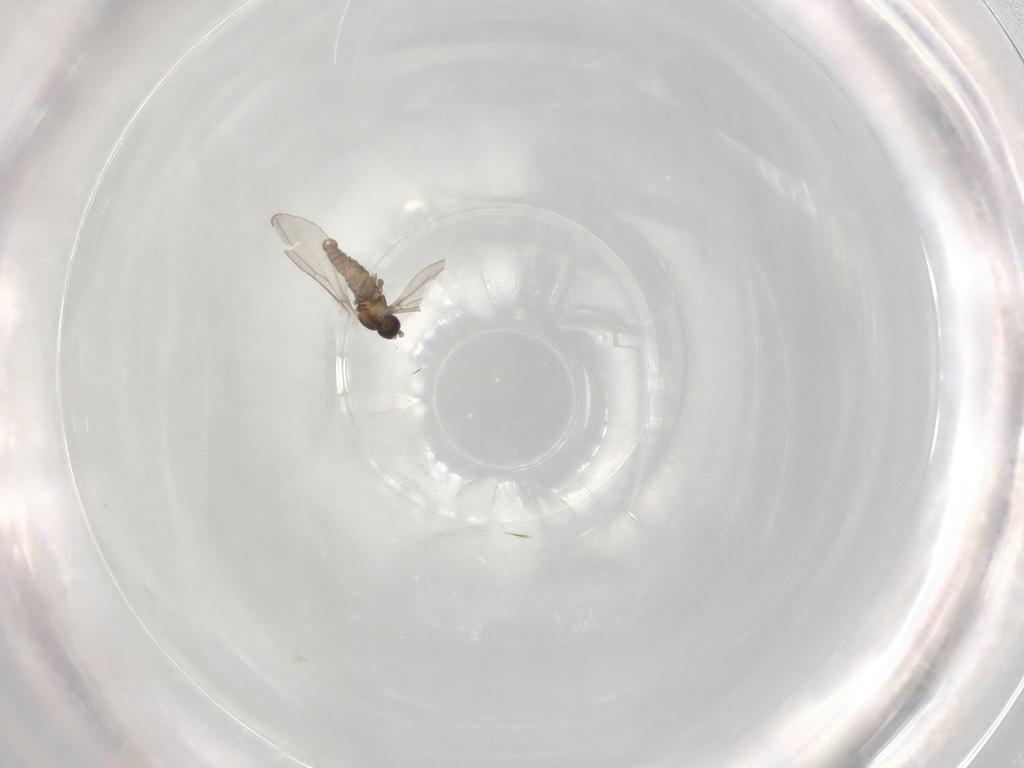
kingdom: Animalia
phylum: Arthropoda
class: Insecta
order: Diptera
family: Cecidomyiidae
